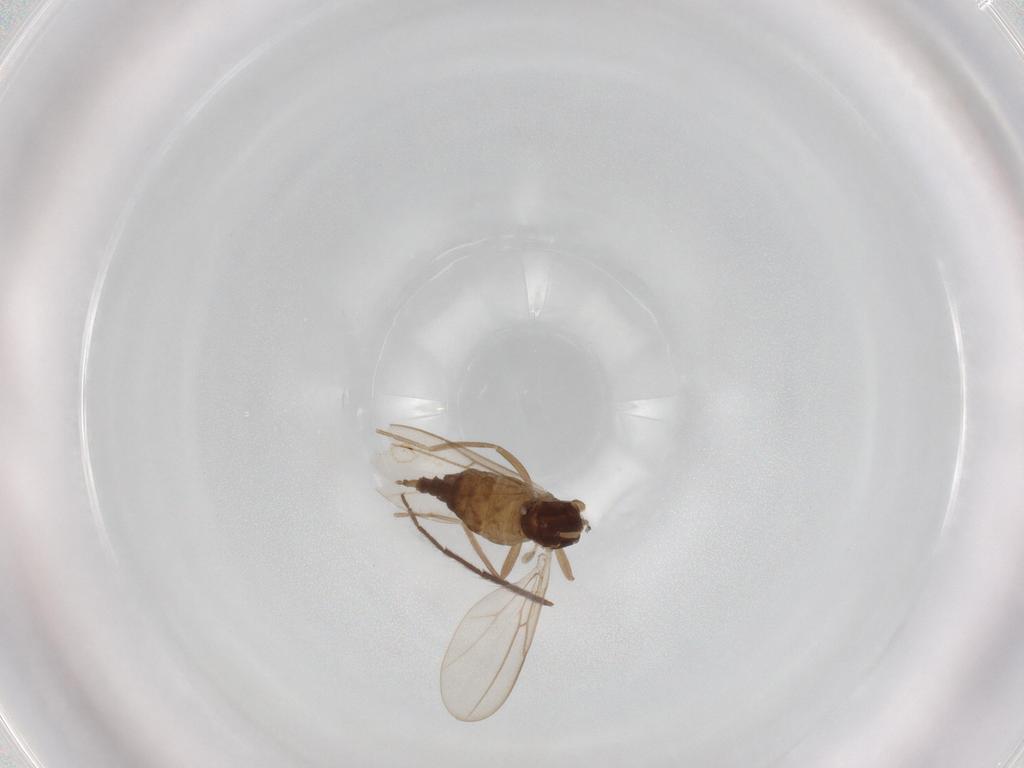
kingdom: Animalia
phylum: Arthropoda
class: Insecta
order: Diptera
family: Cecidomyiidae
